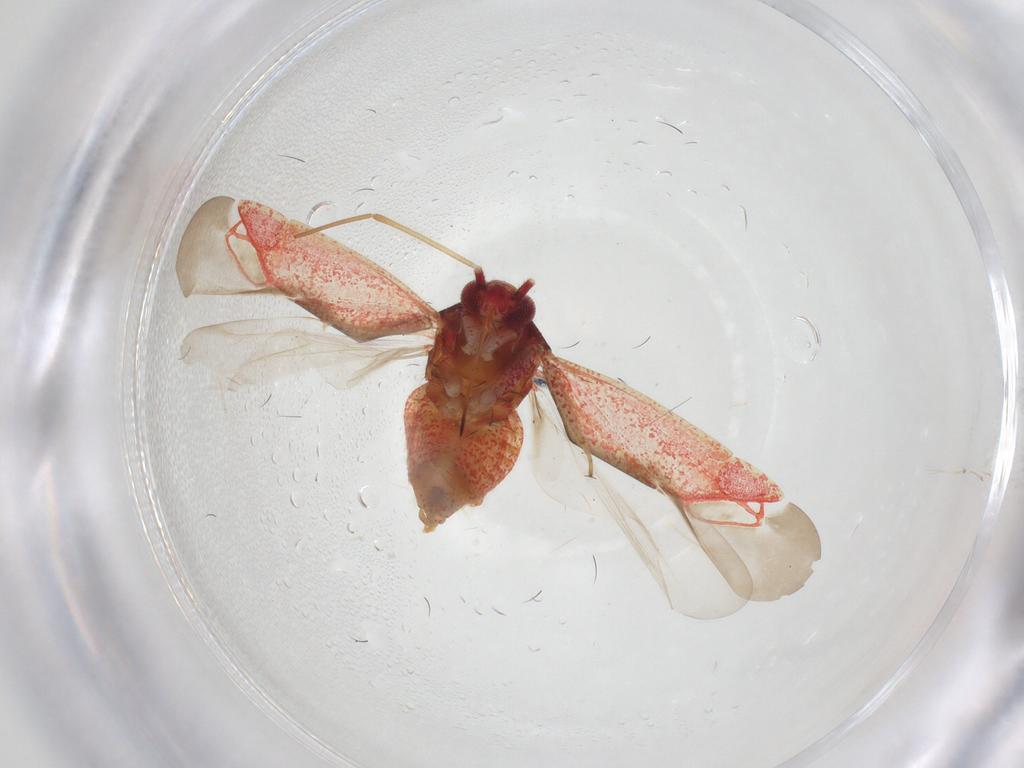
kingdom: Animalia
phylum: Arthropoda
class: Insecta
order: Hemiptera
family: Miridae
